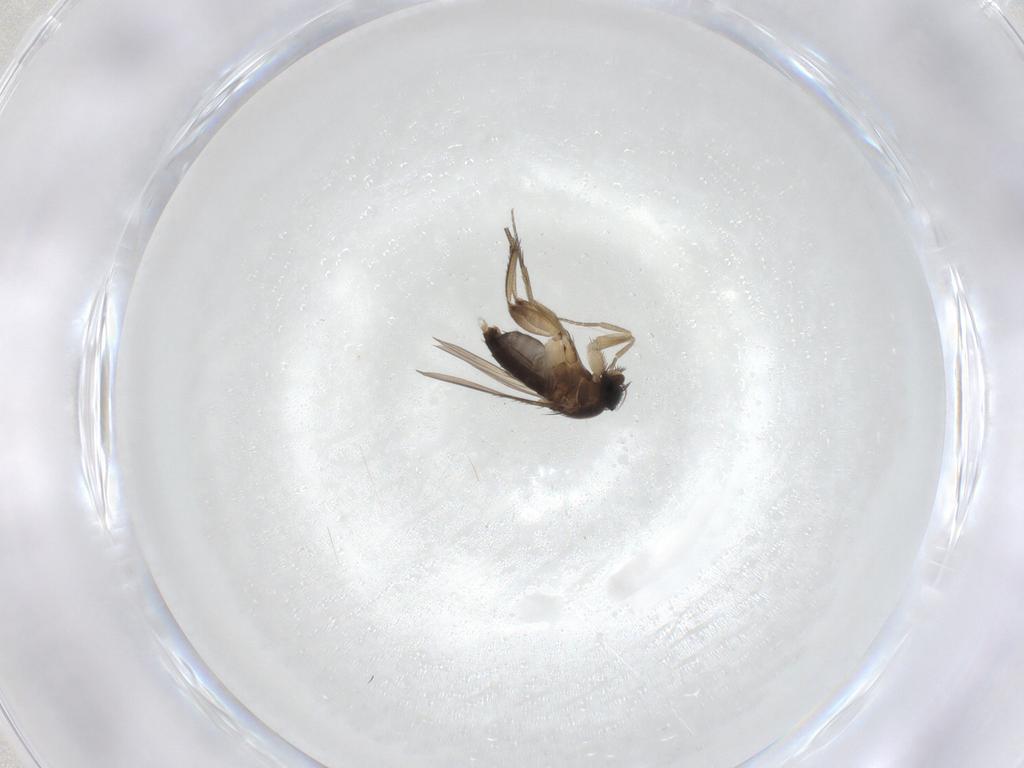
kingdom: Animalia
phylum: Arthropoda
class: Insecta
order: Diptera
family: Phoridae
